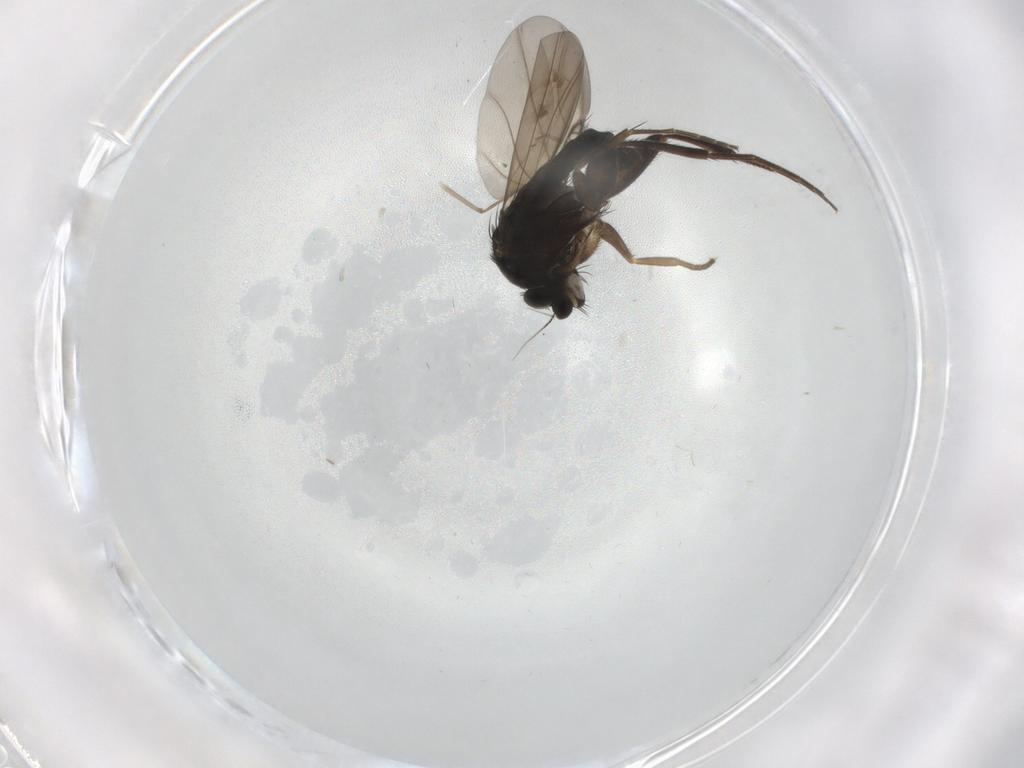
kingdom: Animalia
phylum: Arthropoda
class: Insecta
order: Diptera
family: Phoridae
